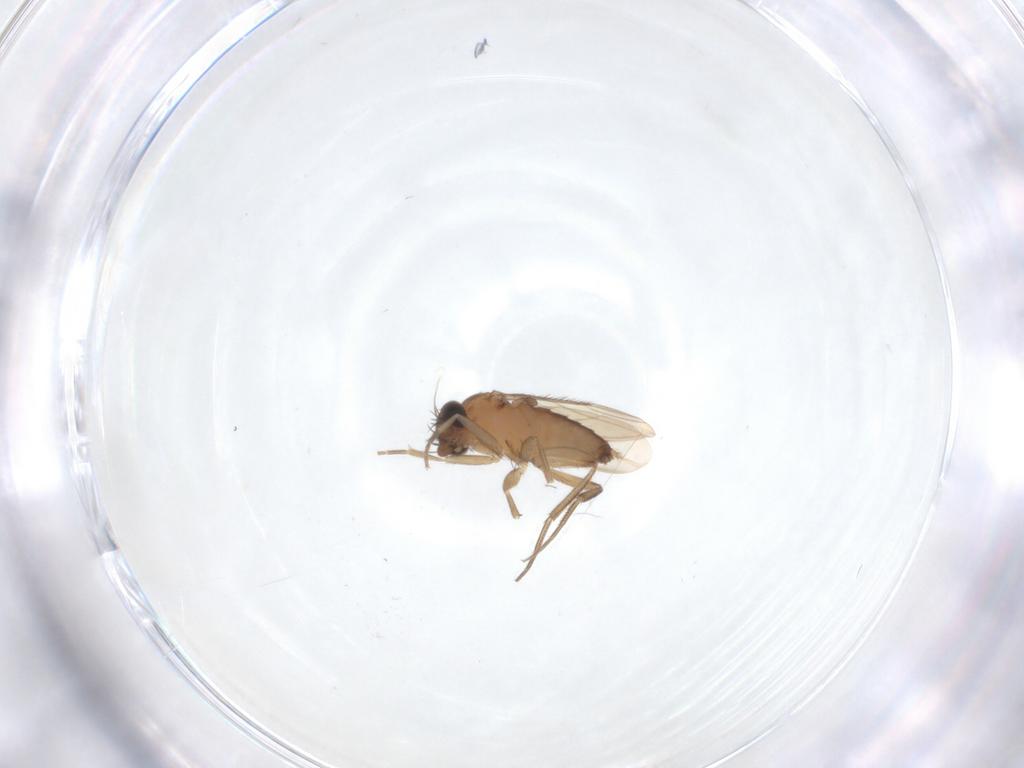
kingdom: Animalia
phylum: Arthropoda
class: Insecta
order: Diptera
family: Phoridae
